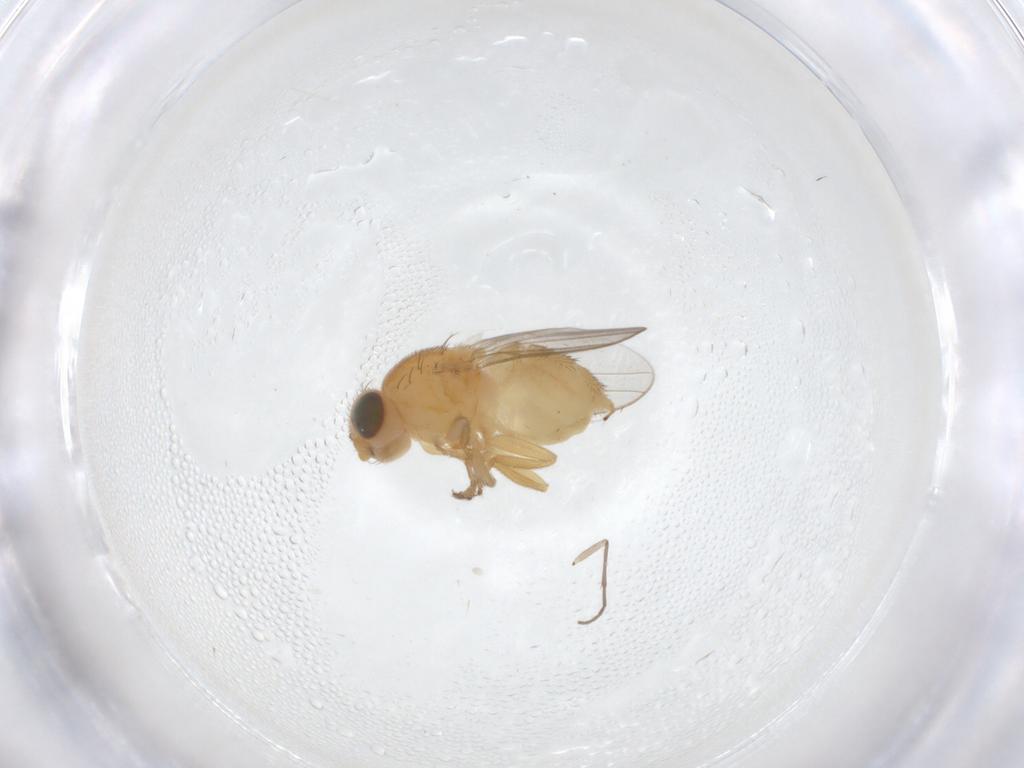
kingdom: Animalia
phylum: Arthropoda
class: Insecta
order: Diptera
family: Chloropidae
